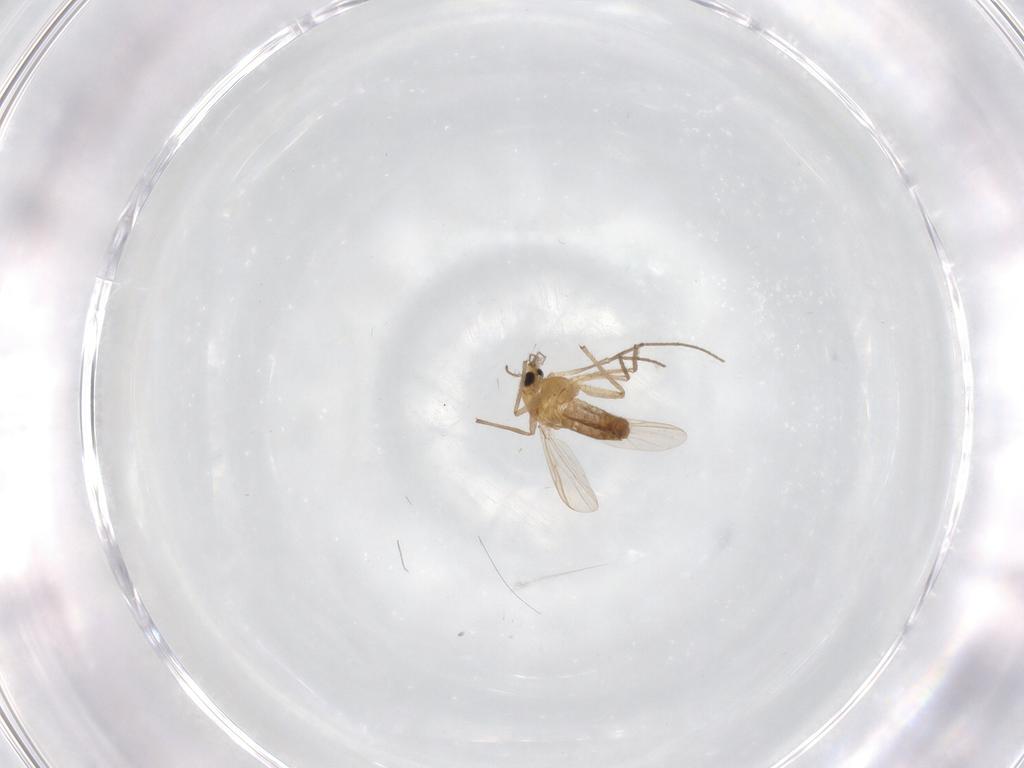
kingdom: Animalia
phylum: Arthropoda
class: Insecta
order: Diptera
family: Chironomidae
